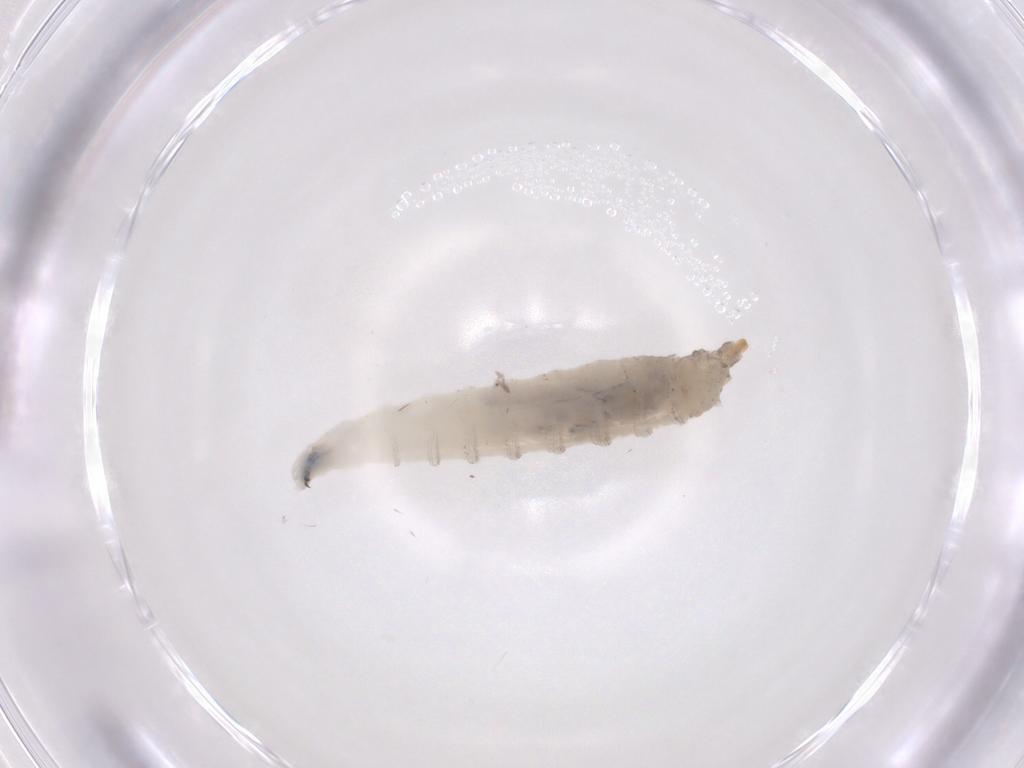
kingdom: Animalia
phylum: Arthropoda
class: Insecta
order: Diptera
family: Drosophilidae
